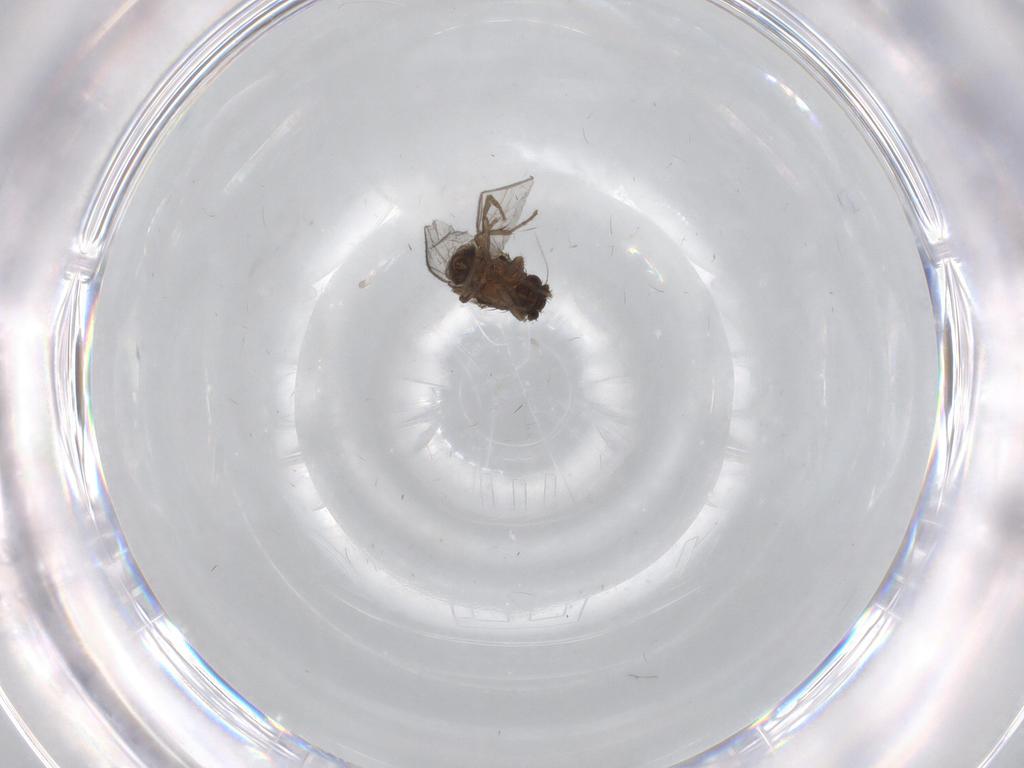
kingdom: Animalia
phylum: Arthropoda
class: Insecta
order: Diptera
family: Sphaeroceridae
